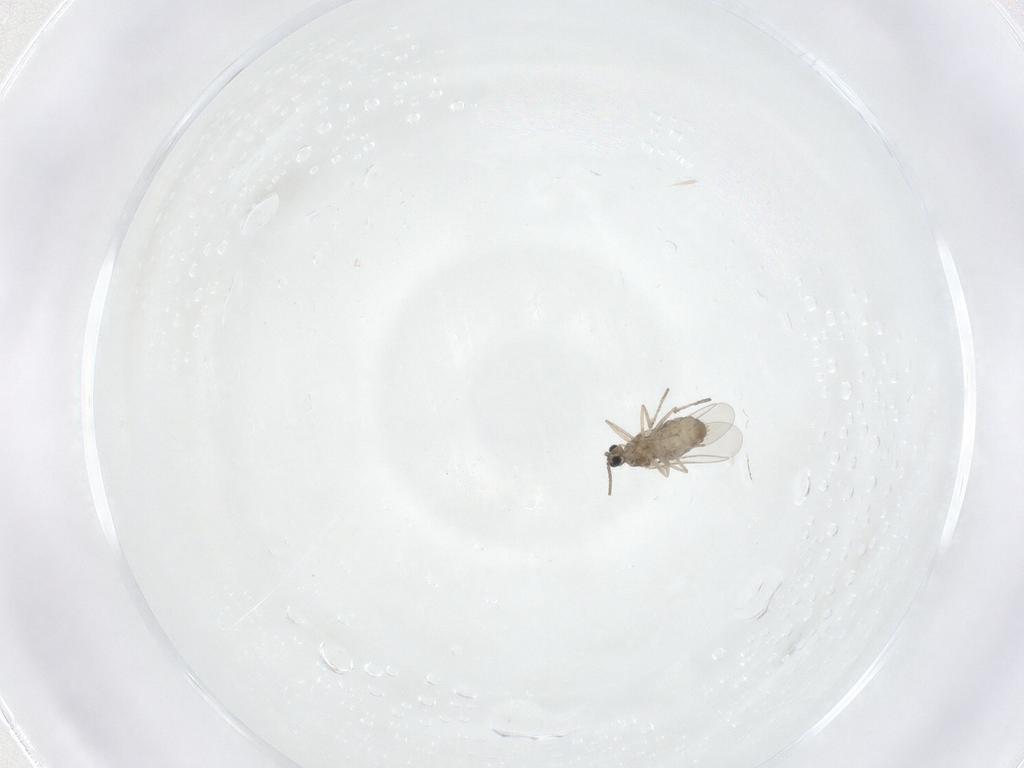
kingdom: Animalia
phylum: Arthropoda
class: Insecta
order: Diptera
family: Cecidomyiidae
